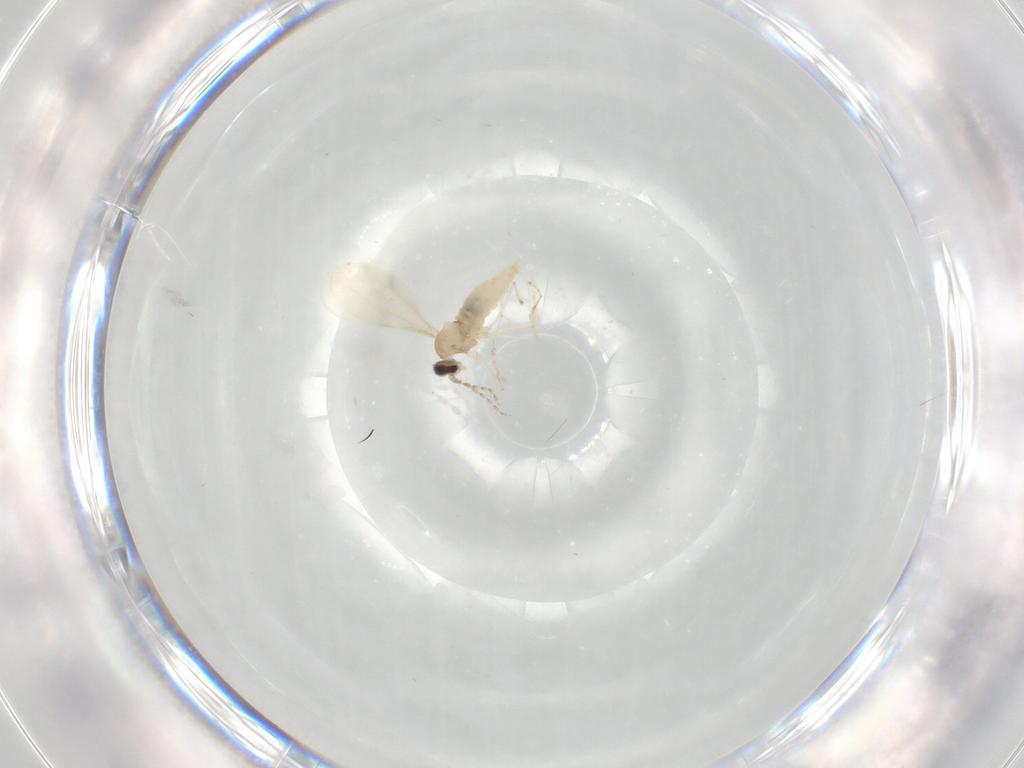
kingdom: Animalia
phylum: Arthropoda
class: Insecta
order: Diptera
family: Cecidomyiidae
